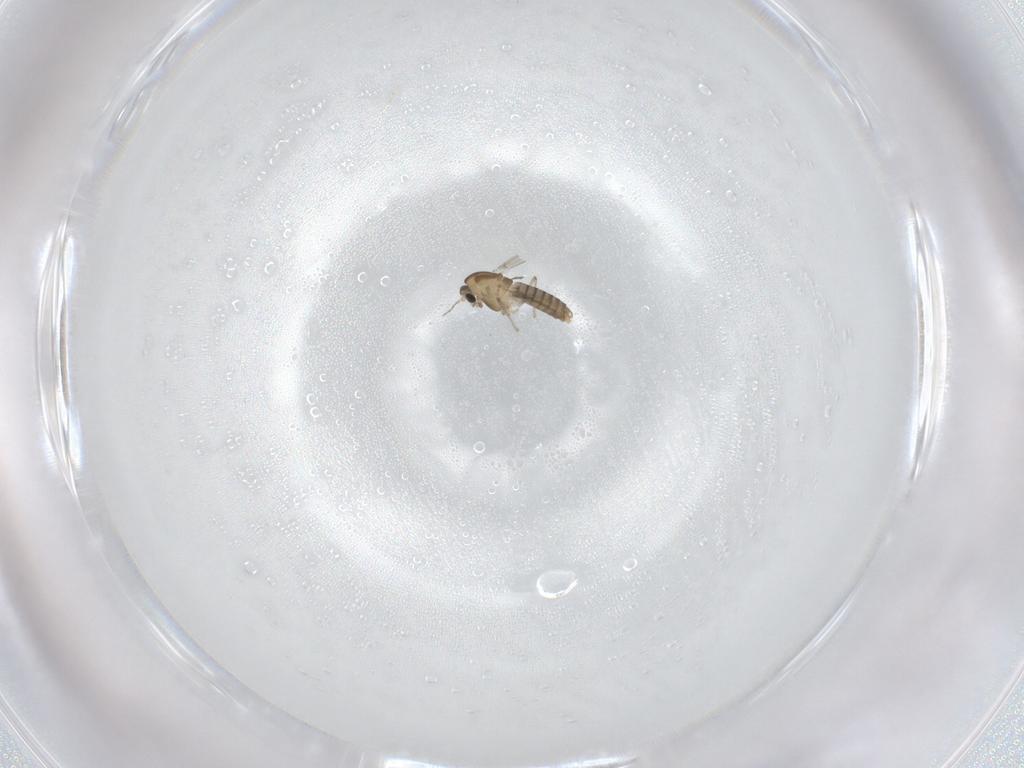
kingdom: Animalia
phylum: Arthropoda
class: Insecta
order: Diptera
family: Chironomidae
